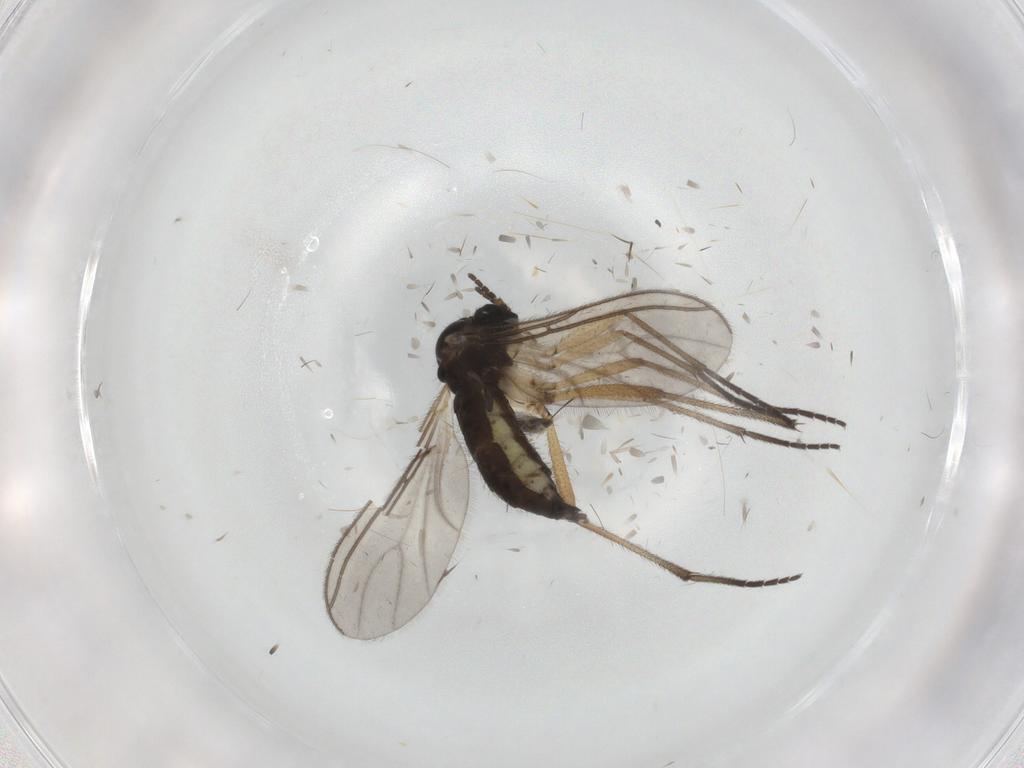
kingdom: Animalia
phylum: Arthropoda
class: Insecta
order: Diptera
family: Sciaridae
